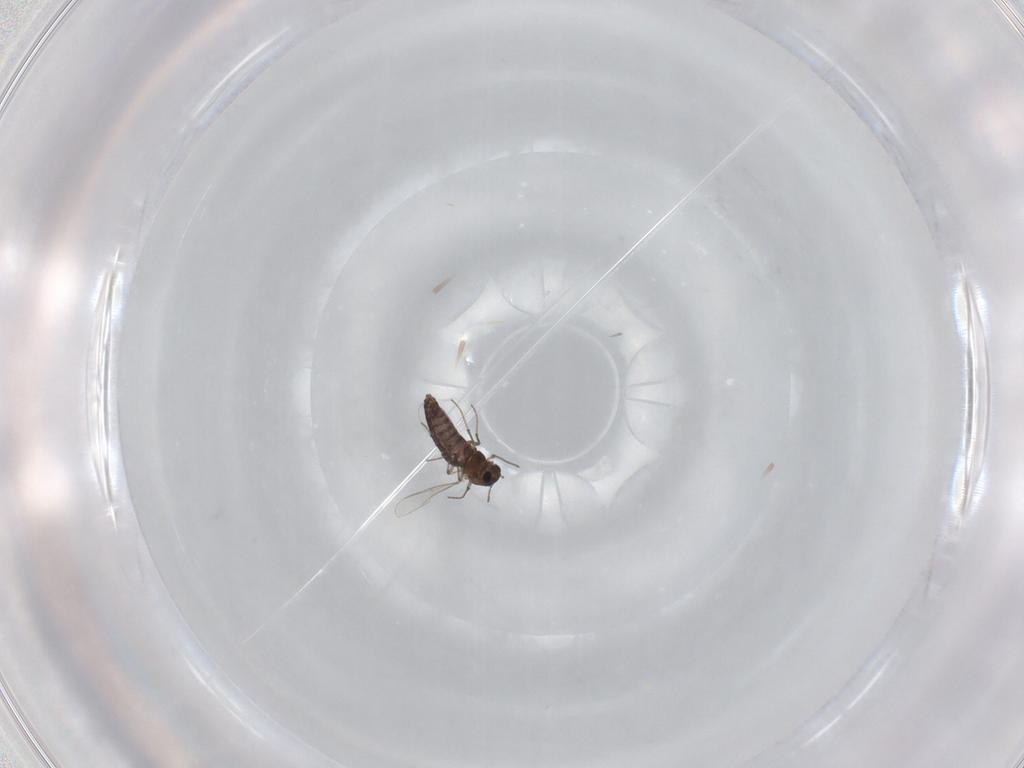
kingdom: Animalia
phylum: Arthropoda
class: Insecta
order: Diptera
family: Chironomidae
